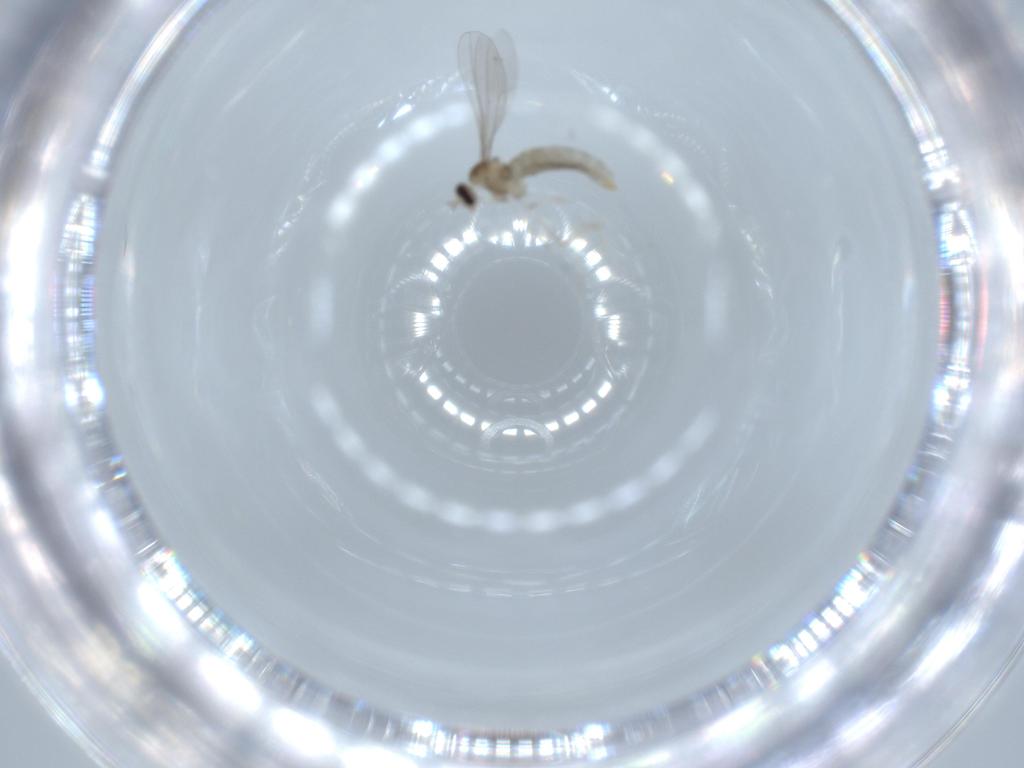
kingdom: Animalia
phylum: Arthropoda
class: Insecta
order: Diptera
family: Cecidomyiidae
